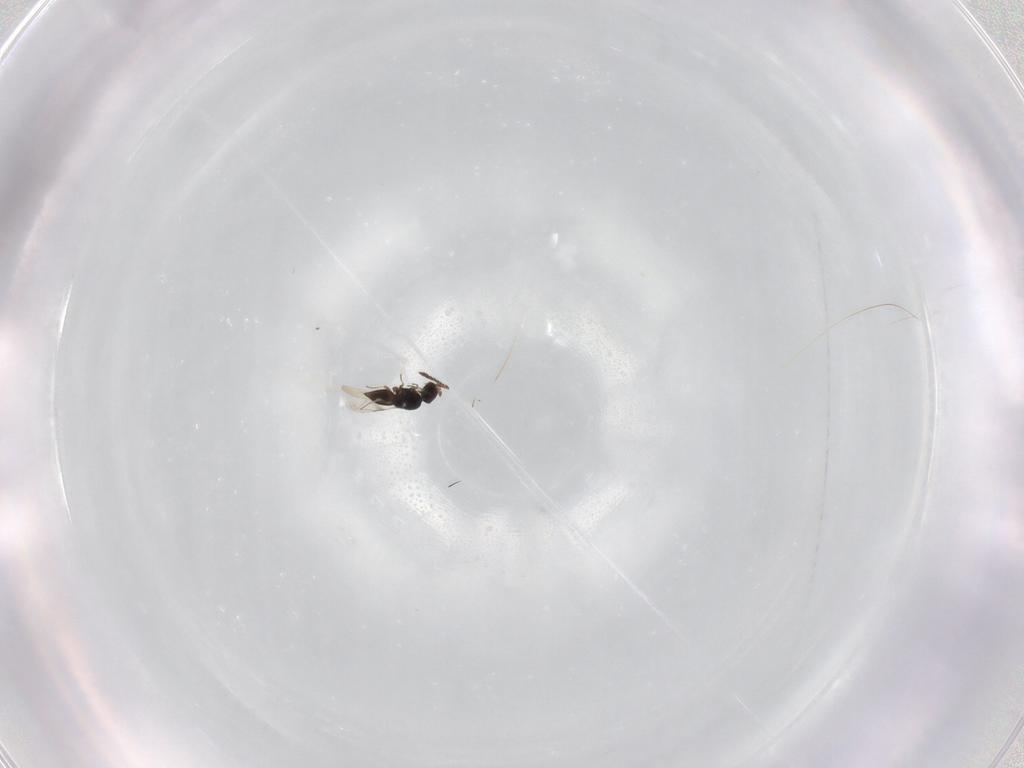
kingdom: Animalia
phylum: Arthropoda
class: Insecta
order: Hymenoptera
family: Ceraphronidae
